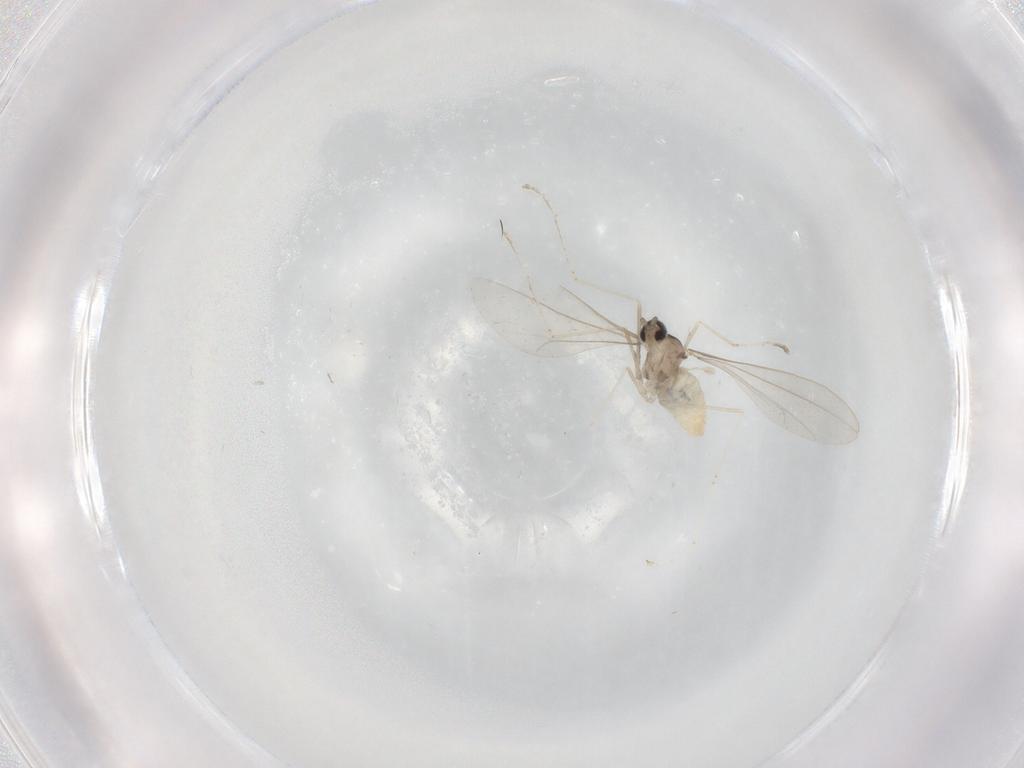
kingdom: Animalia
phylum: Arthropoda
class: Insecta
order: Diptera
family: Cecidomyiidae
